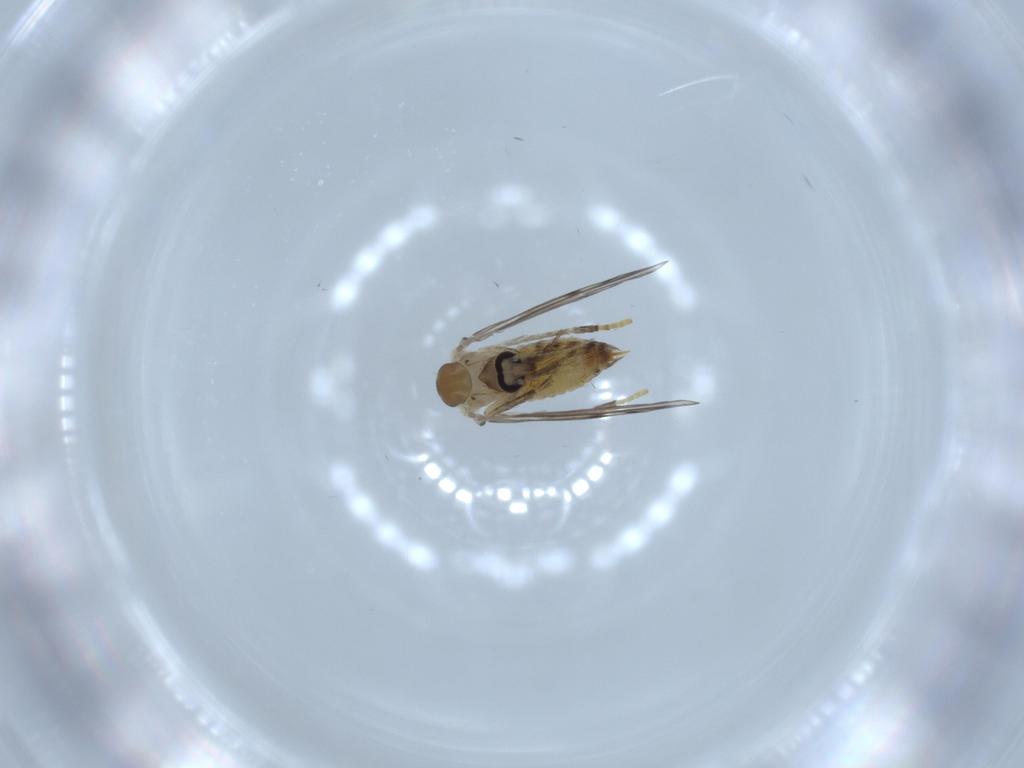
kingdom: Animalia
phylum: Arthropoda
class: Insecta
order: Diptera
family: Psychodidae
